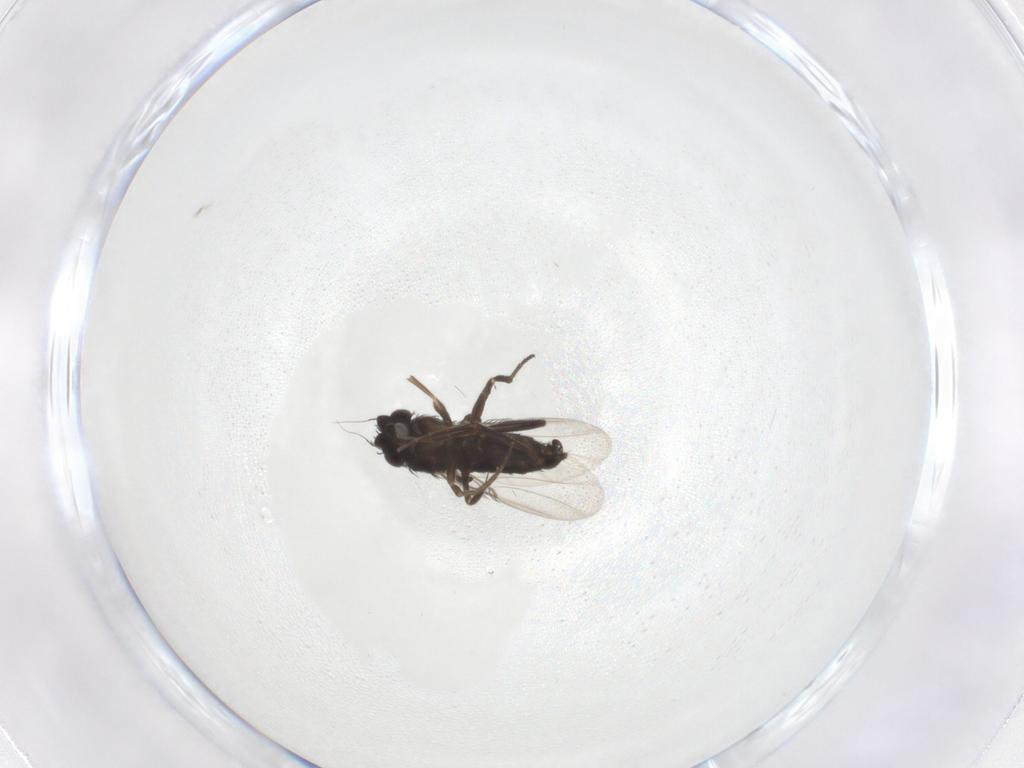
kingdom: Animalia
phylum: Arthropoda
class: Insecta
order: Diptera
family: Phoridae
